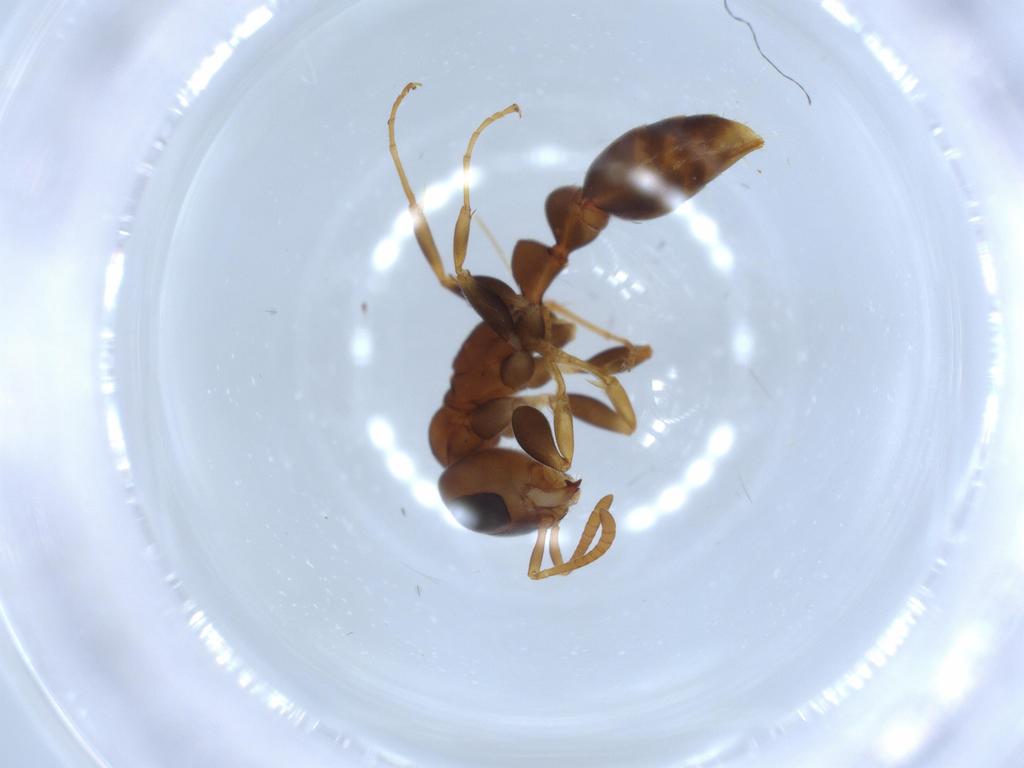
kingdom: Animalia
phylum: Arthropoda
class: Insecta
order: Hymenoptera
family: Formicidae
